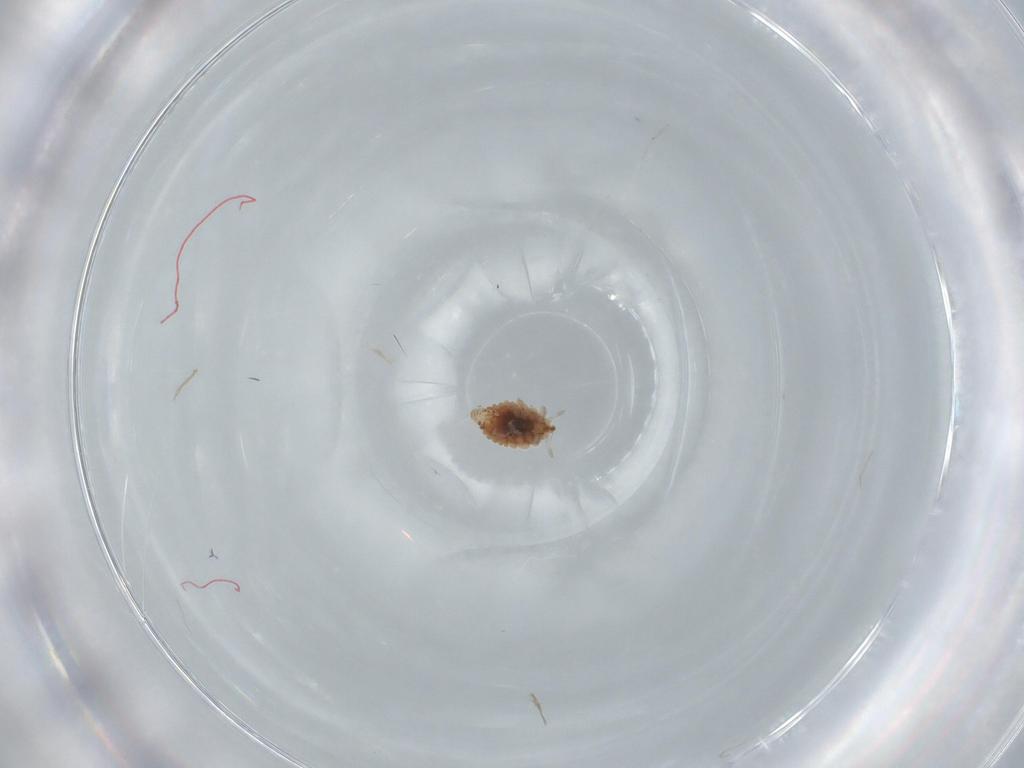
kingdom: Animalia
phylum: Arthropoda
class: Insecta
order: Neuroptera
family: Coniopterygidae
